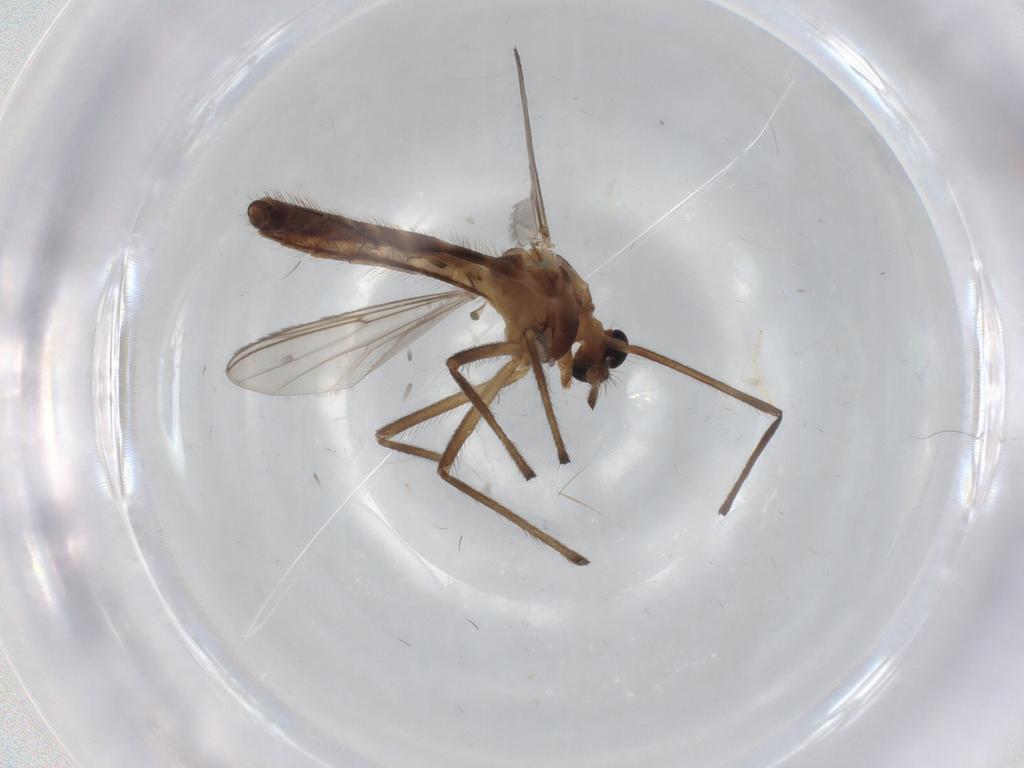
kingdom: Animalia
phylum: Arthropoda
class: Insecta
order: Diptera
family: Chironomidae
